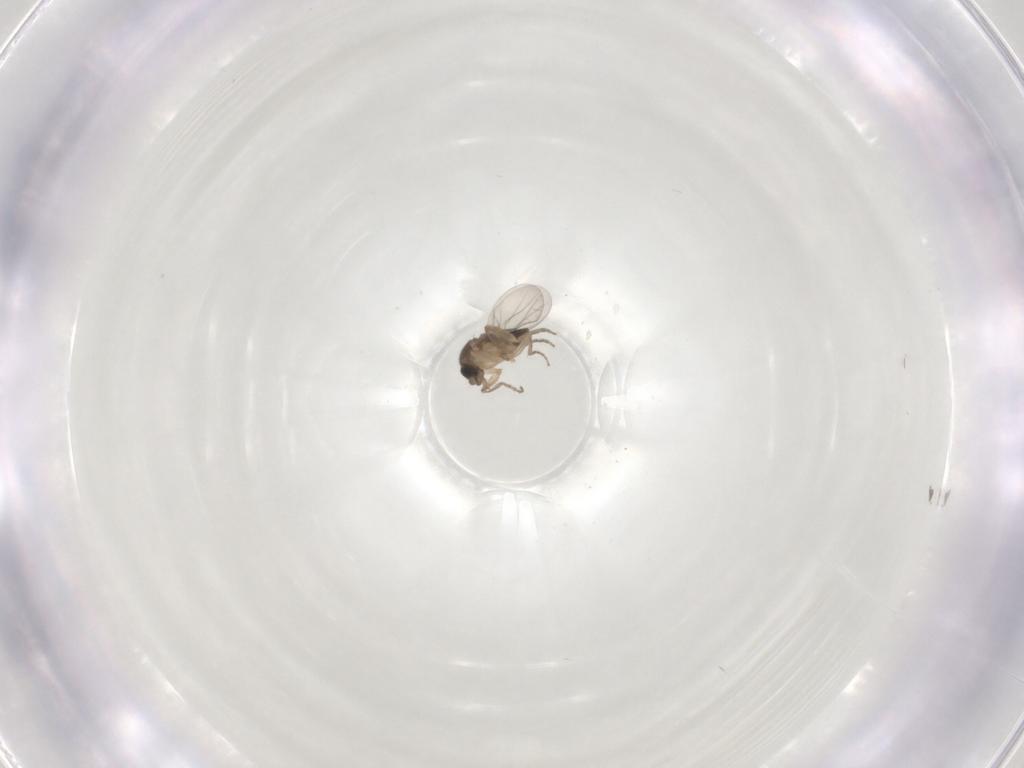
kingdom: Animalia
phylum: Arthropoda
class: Insecta
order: Diptera
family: Phoridae
